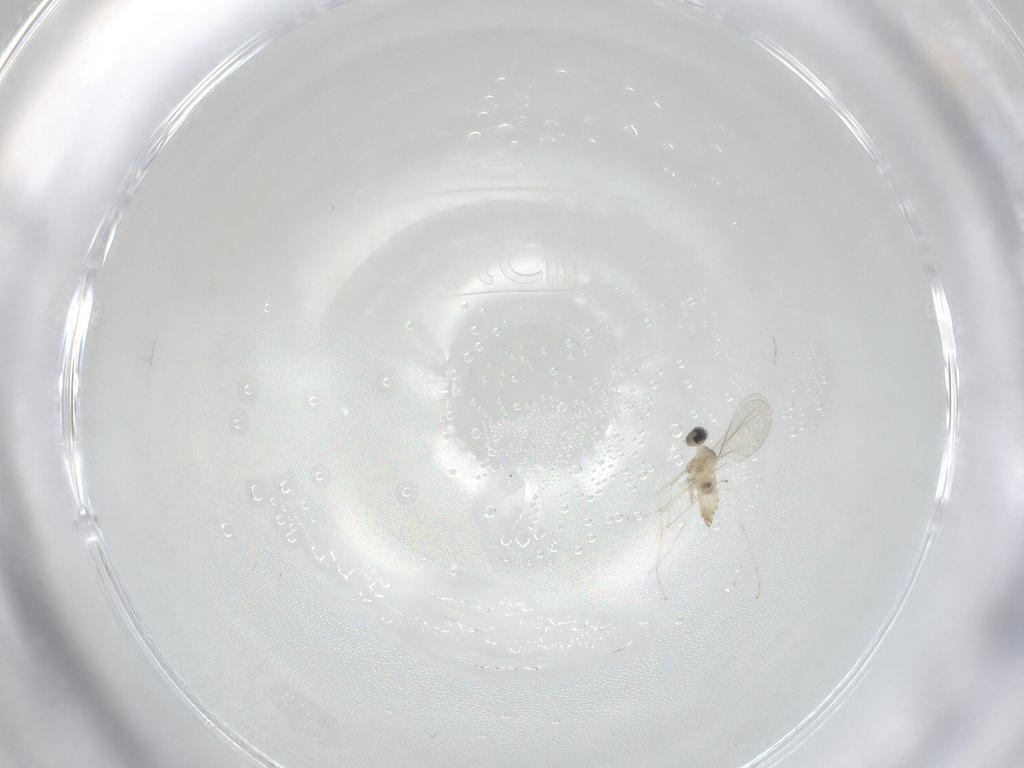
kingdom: Animalia
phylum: Arthropoda
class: Insecta
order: Diptera
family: Cecidomyiidae
